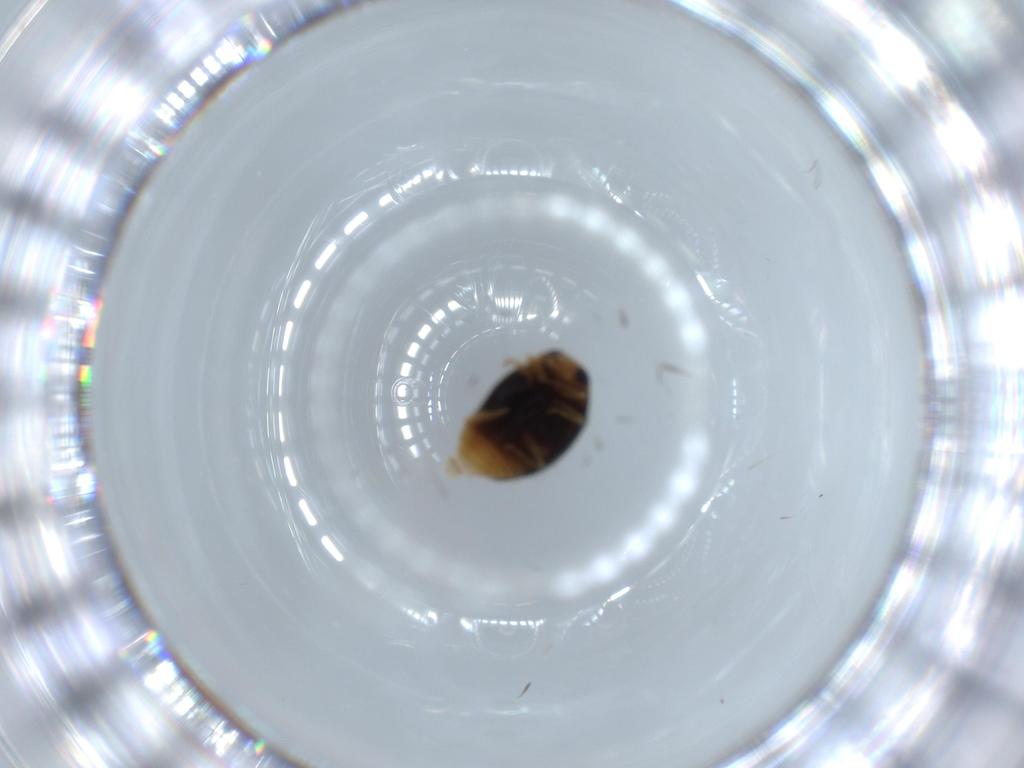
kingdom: Animalia
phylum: Arthropoda
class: Insecta
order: Coleoptera
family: Coccinellidae
